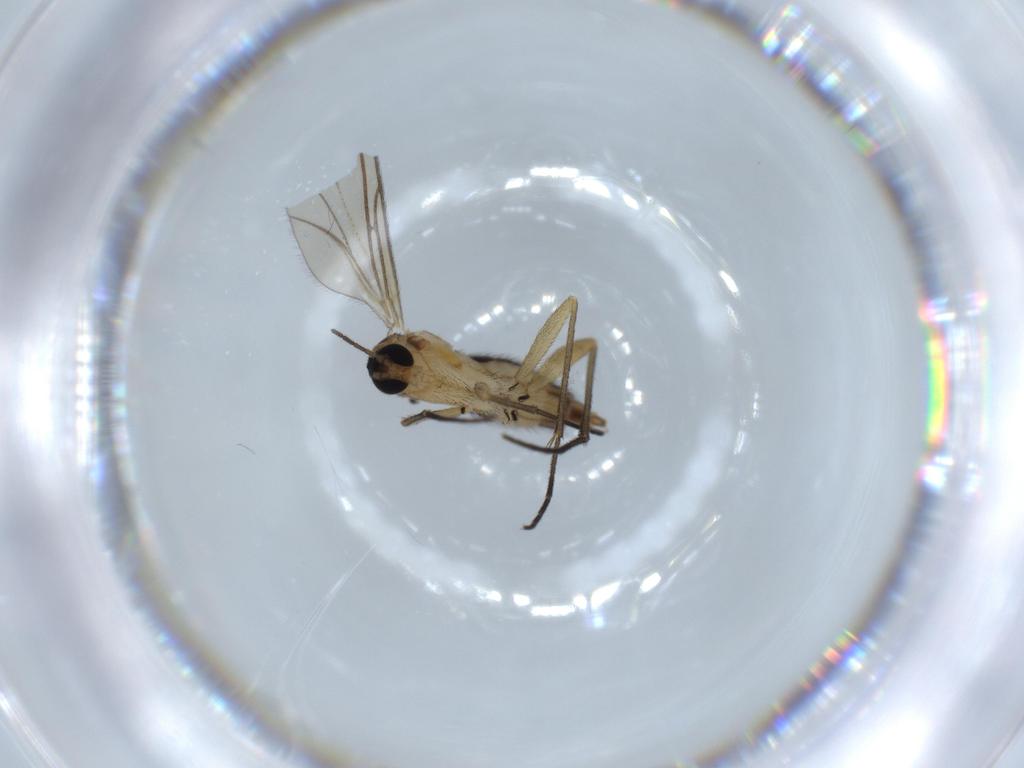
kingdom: Animalia
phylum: Arthropoda
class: Insecta
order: Diptera
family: Sciaridae
